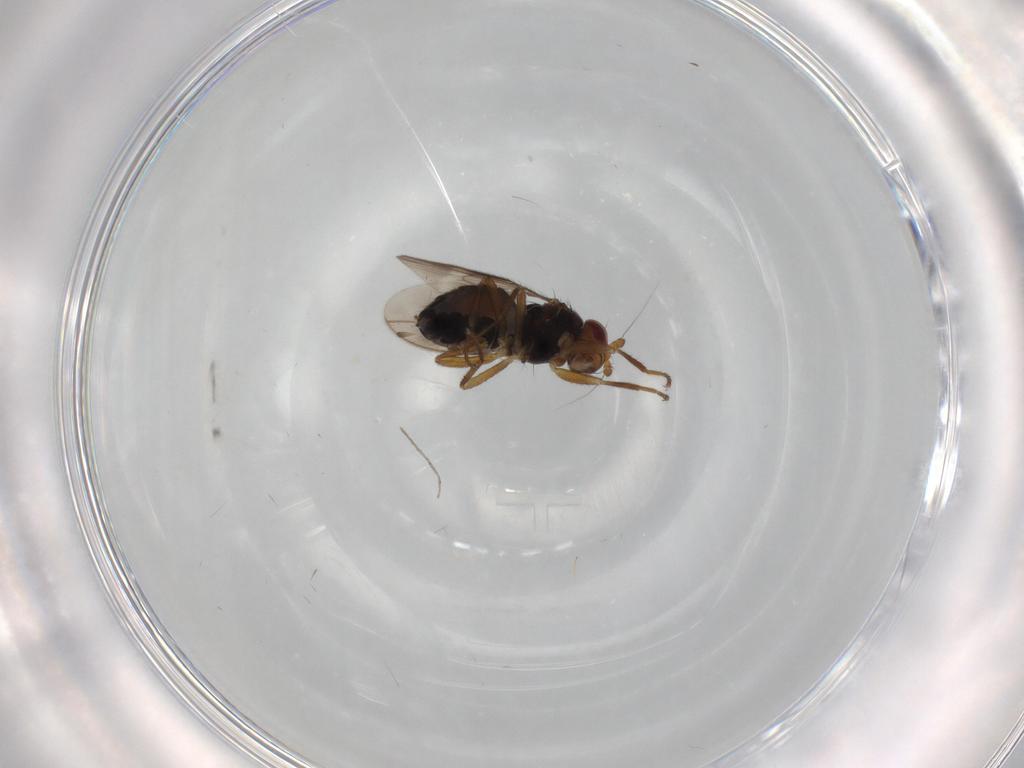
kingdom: Animalia
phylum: Arthropoda
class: Insecta
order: Diptera
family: Sphaeroceridae
